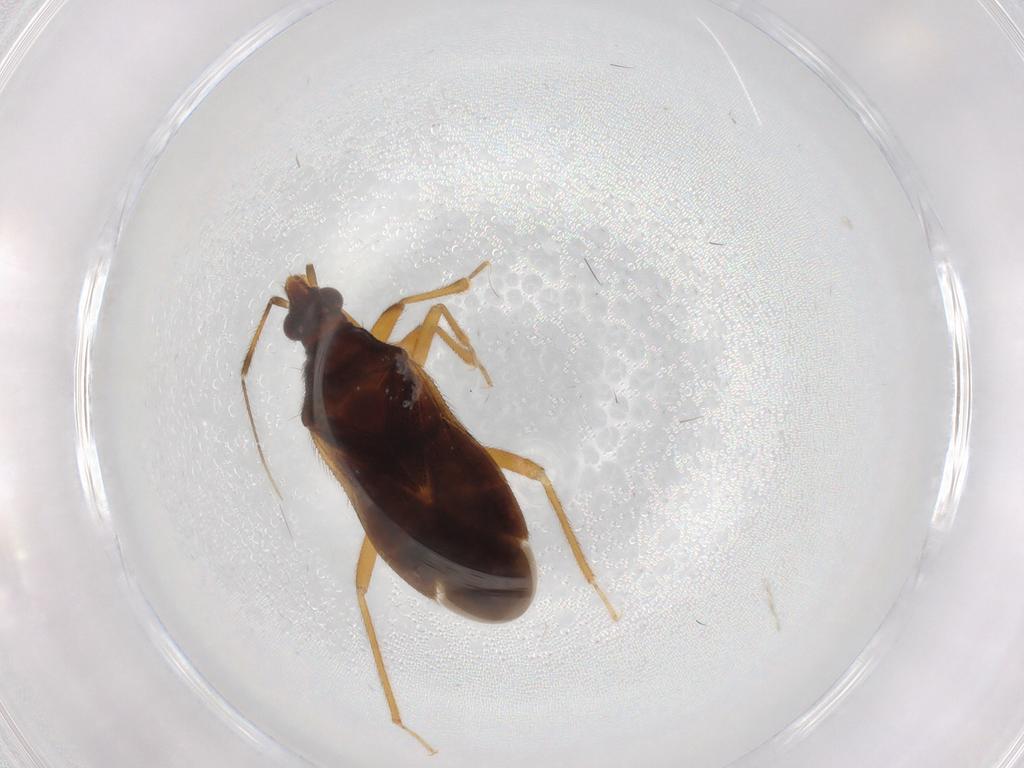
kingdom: Animalia
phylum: Arthropoda
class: Insecta
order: Hemiptera
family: Anthocoridae
